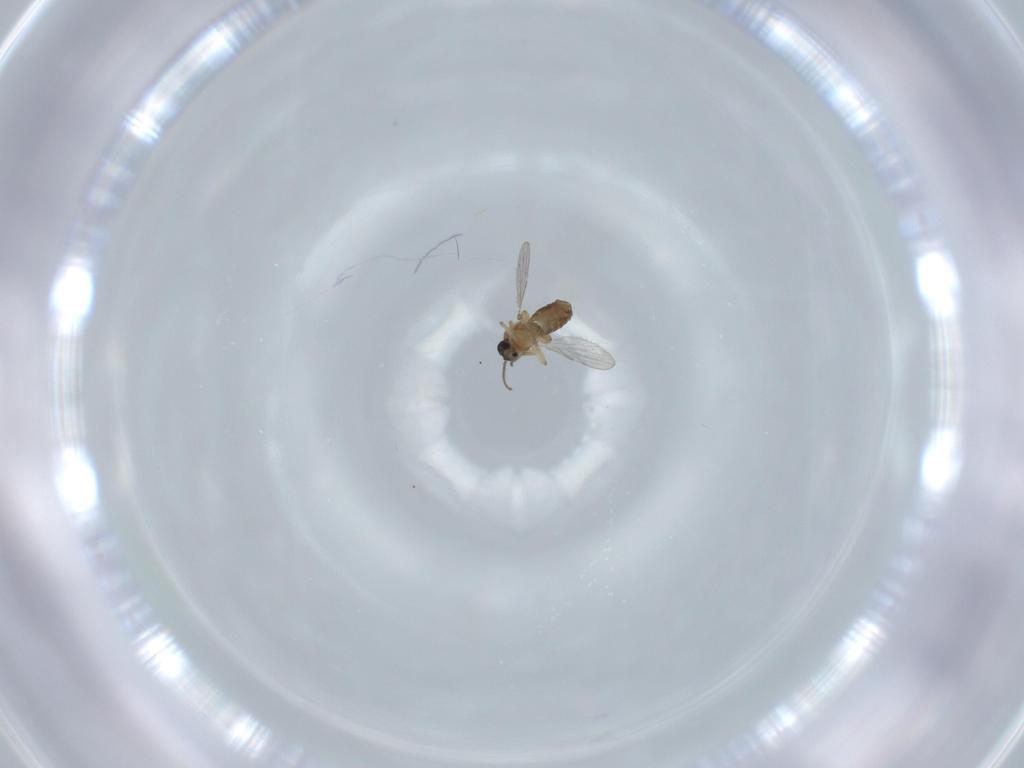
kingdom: Animalia
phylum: Arthropoda
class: Insecta
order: Diptera
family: Ceratopogonidae
